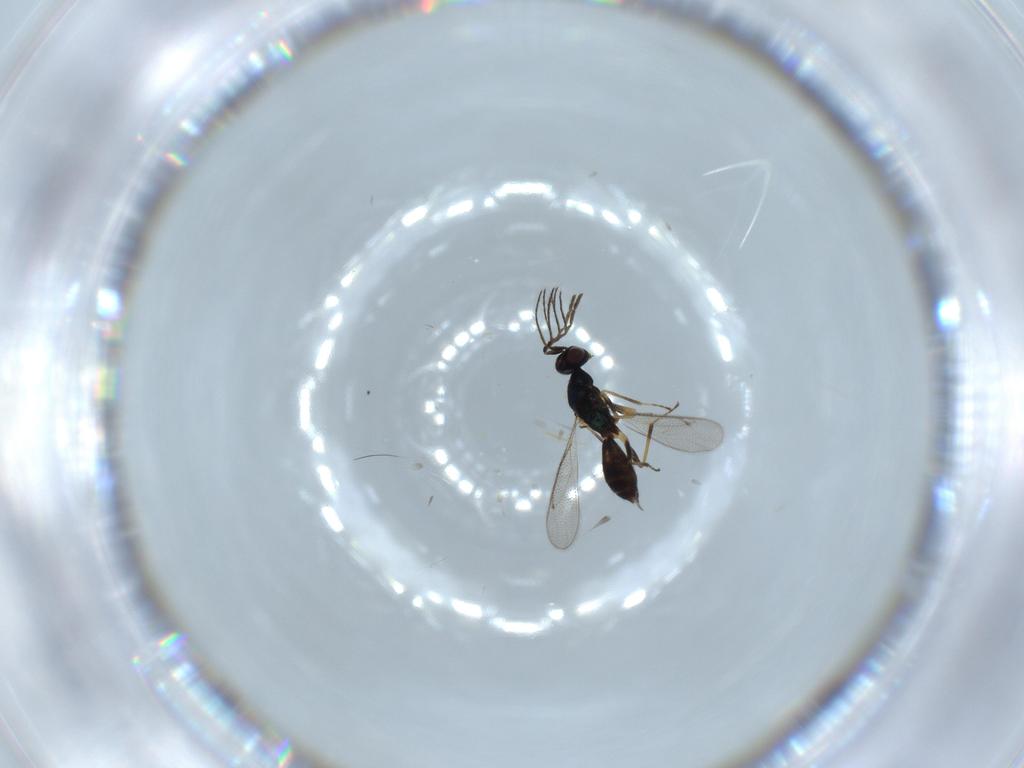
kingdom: Animalia
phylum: Arthropoda
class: Insecta
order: Hymenoptera
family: Eulophidae
